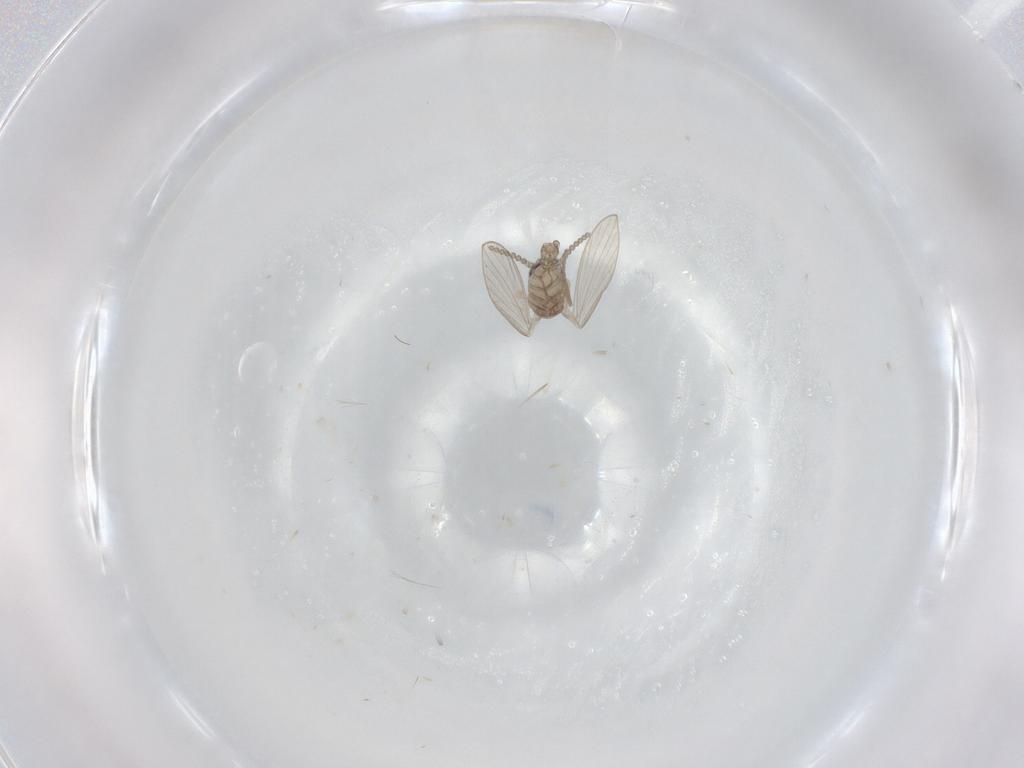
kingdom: Animalia
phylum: Arthropoda
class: Insecta
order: Diptera
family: Psychodidae
